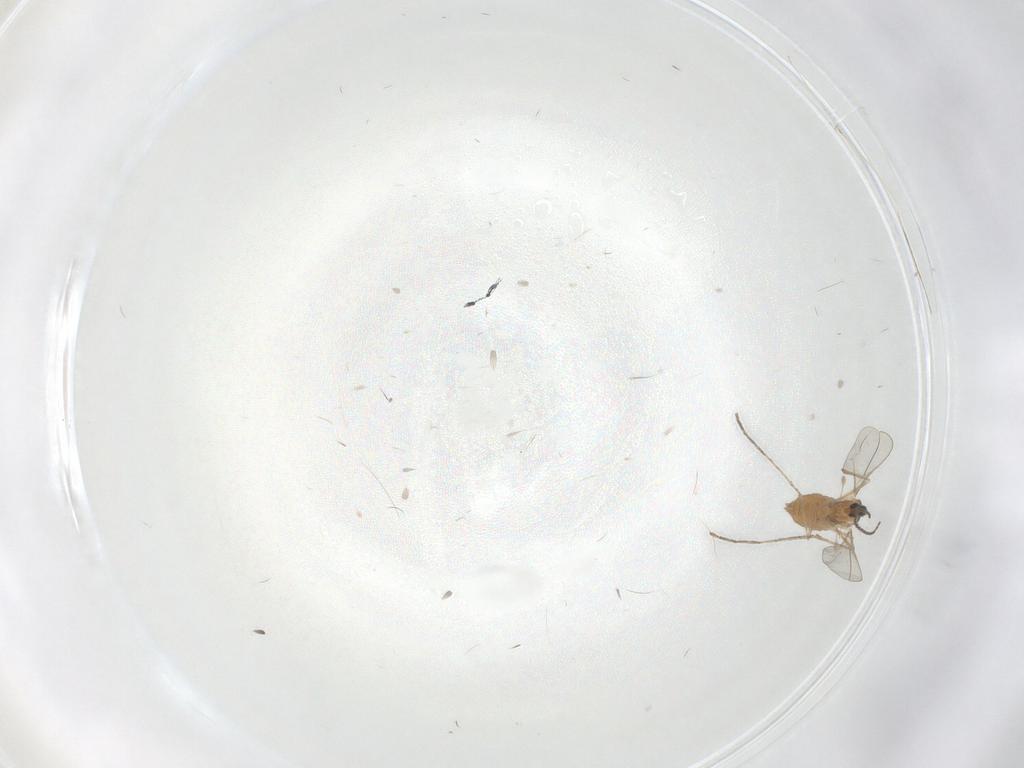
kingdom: Animalia
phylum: Arthropoda
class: Insecta
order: Diptera
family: Cecidomyiidae
